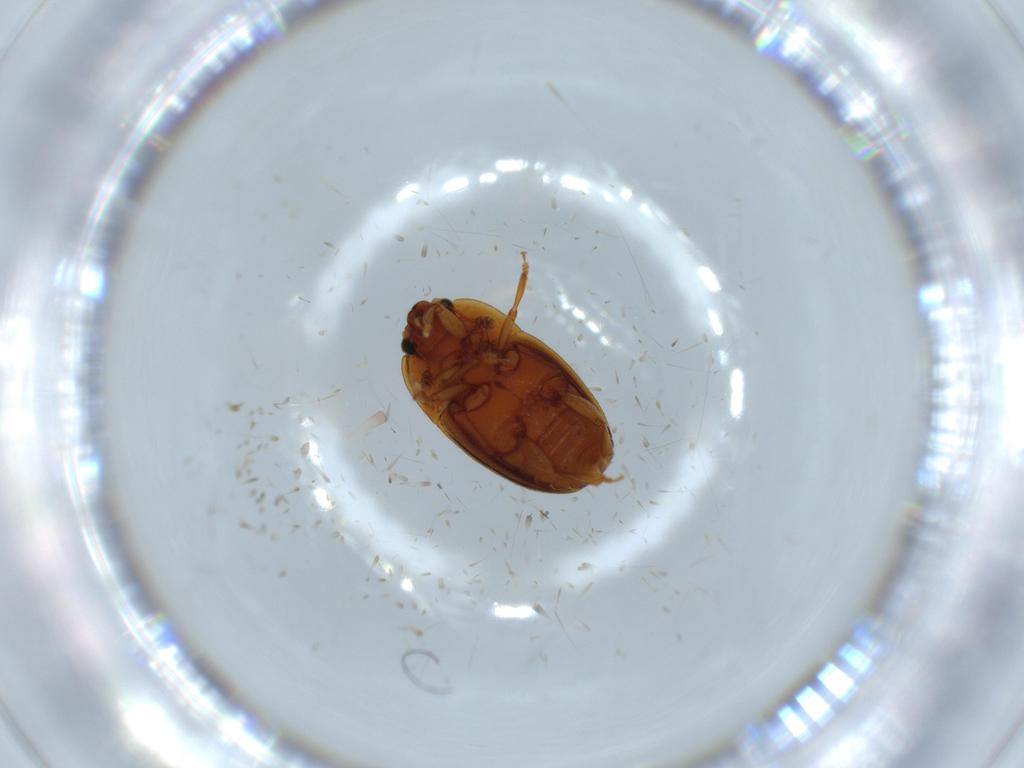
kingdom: Animalia
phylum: Arthropoda
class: Insecta
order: Coleoptera
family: Nitidulidae
